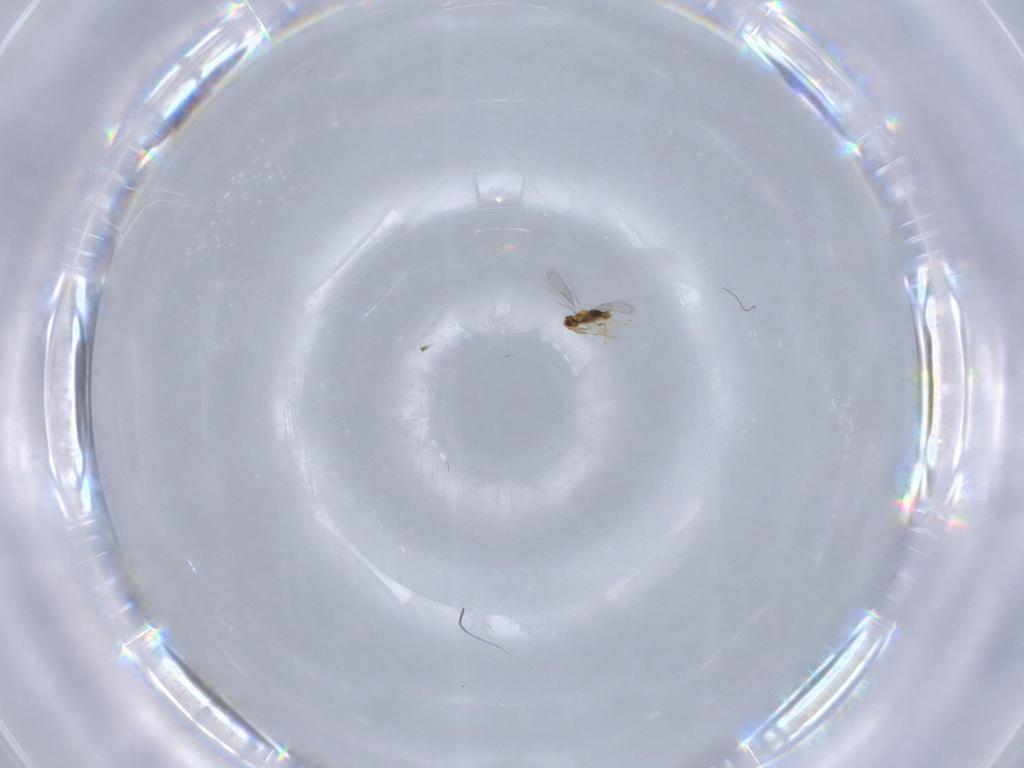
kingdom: Animalia
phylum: Arthropoda
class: Insecta
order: Hymenoptera
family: Aphelinidae
